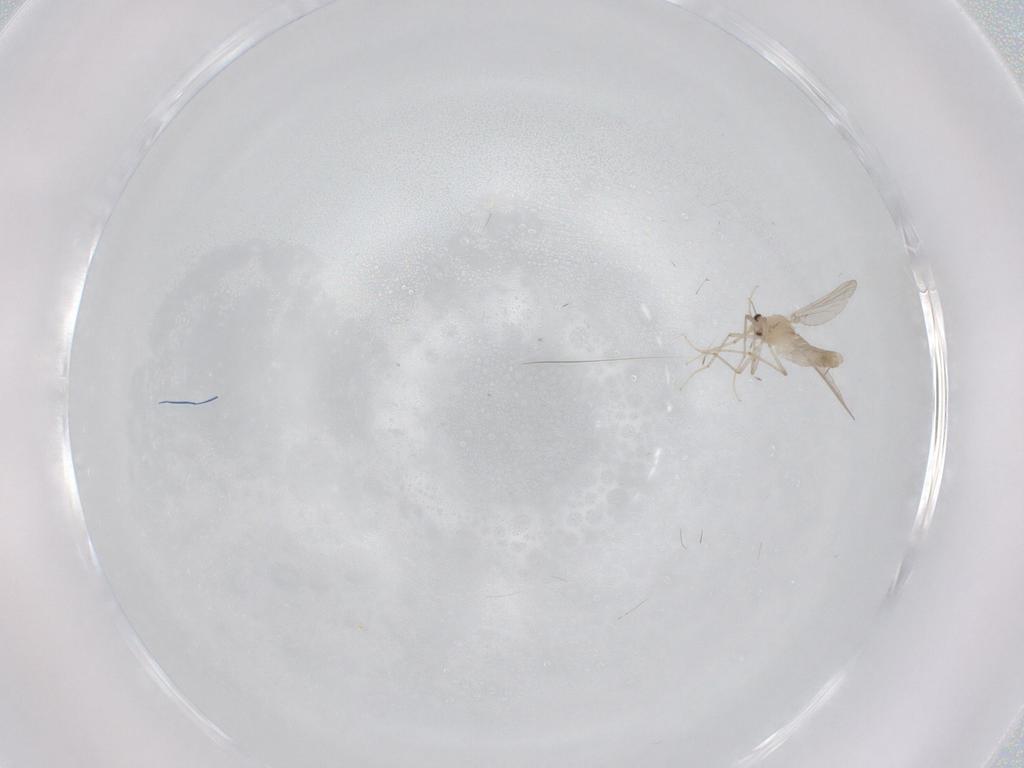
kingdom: Animalia
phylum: Arthropoda
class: Insecta
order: Diptera
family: Chironomidae
